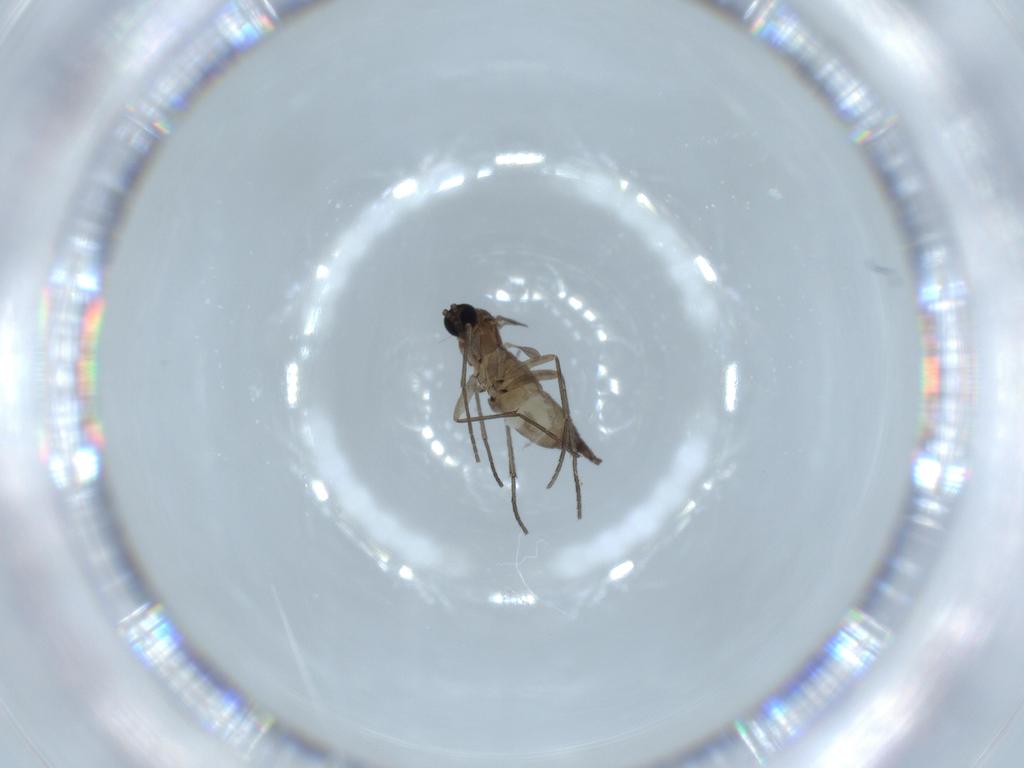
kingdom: Animalia
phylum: Arthropoda
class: Insecta
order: Diptera
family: Sciaridae
